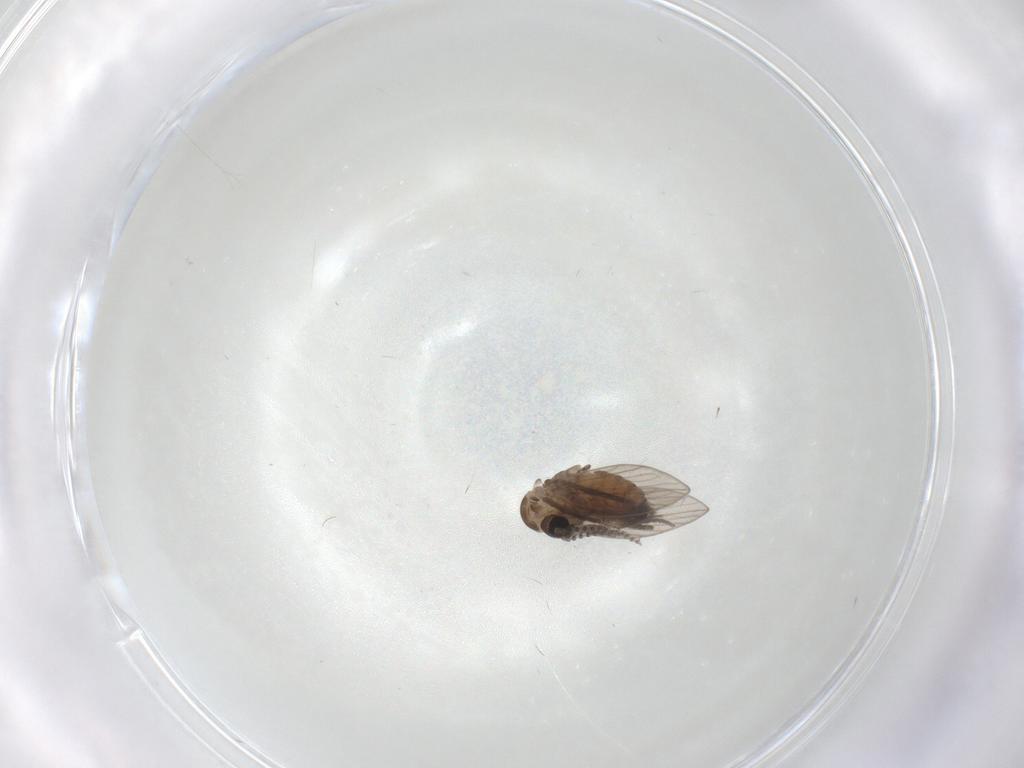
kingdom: Animalia
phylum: Arthropoda
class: Insecta
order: Diptera
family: Psychodidae
